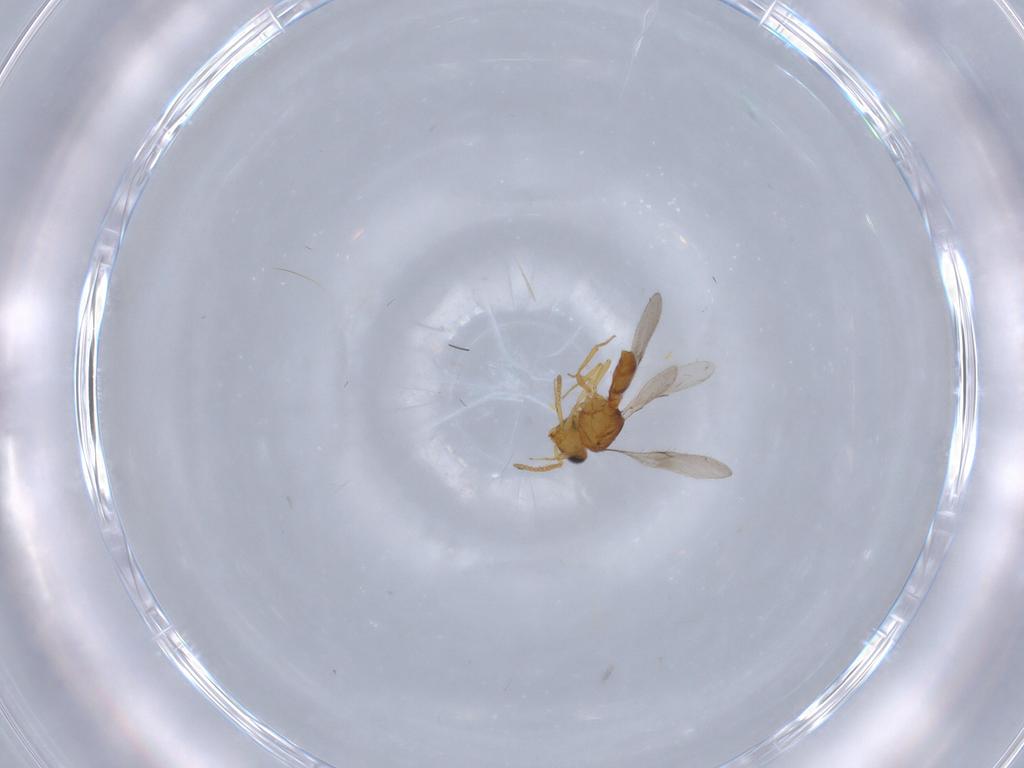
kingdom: Animalia
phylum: Arthropoda
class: Insecta
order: Hymenoptera
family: Scelionidae
